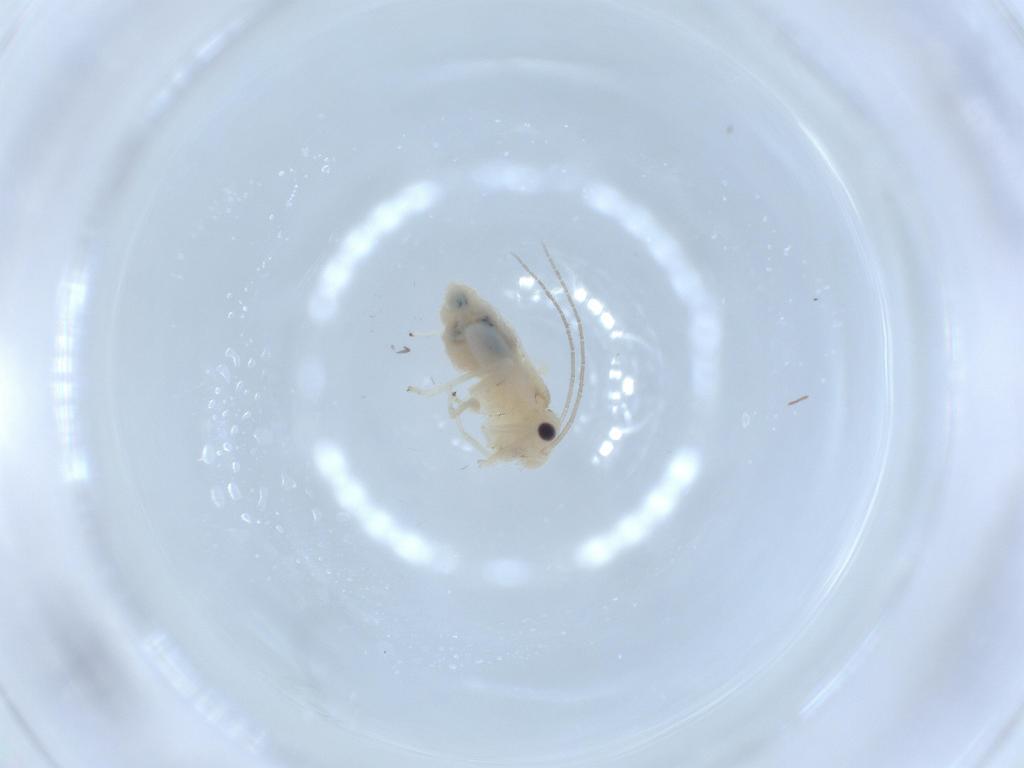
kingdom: Animalia
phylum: Arthropoda
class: Insecta
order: Psocodea
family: Caeciliusidae
